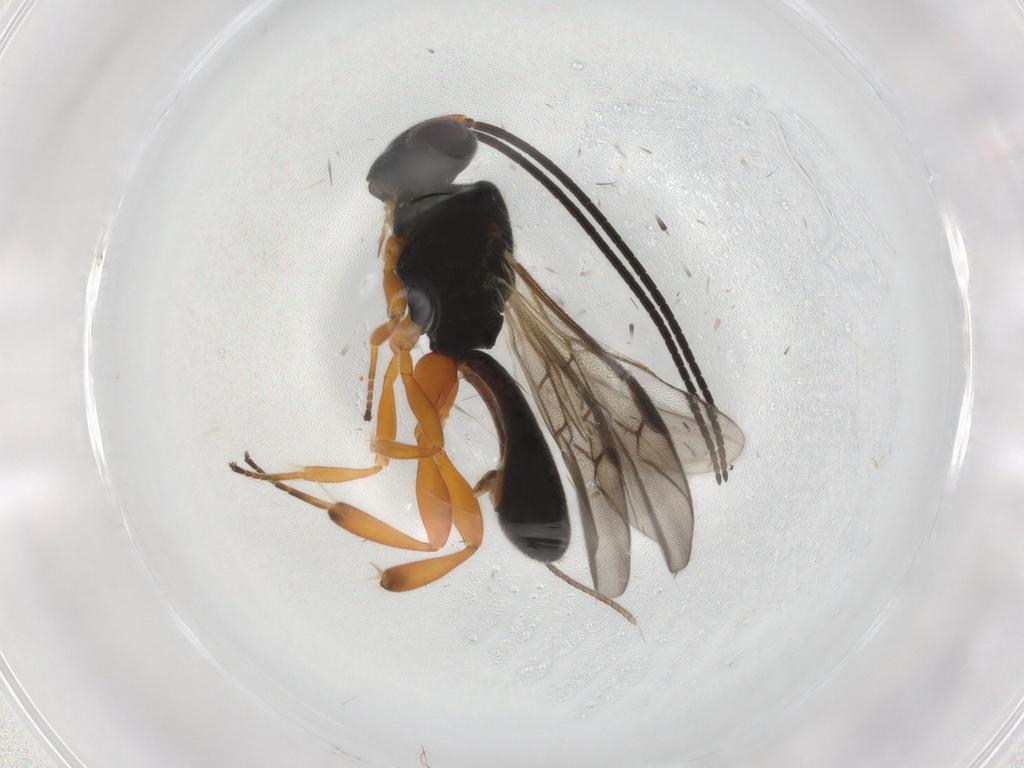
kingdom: Animalia
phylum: Arthropoda
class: Insecta
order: Hymenoptera
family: Braconidae
